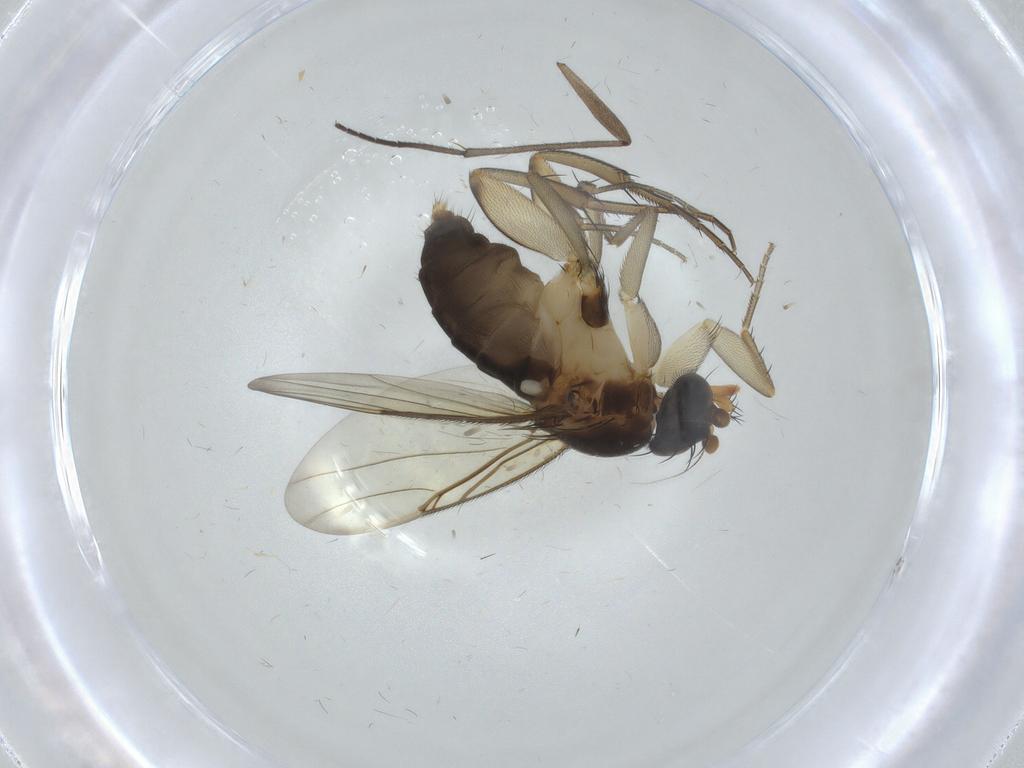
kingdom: Animalia
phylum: Arthropoda
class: Insecta
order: Diptera
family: Phoridae
